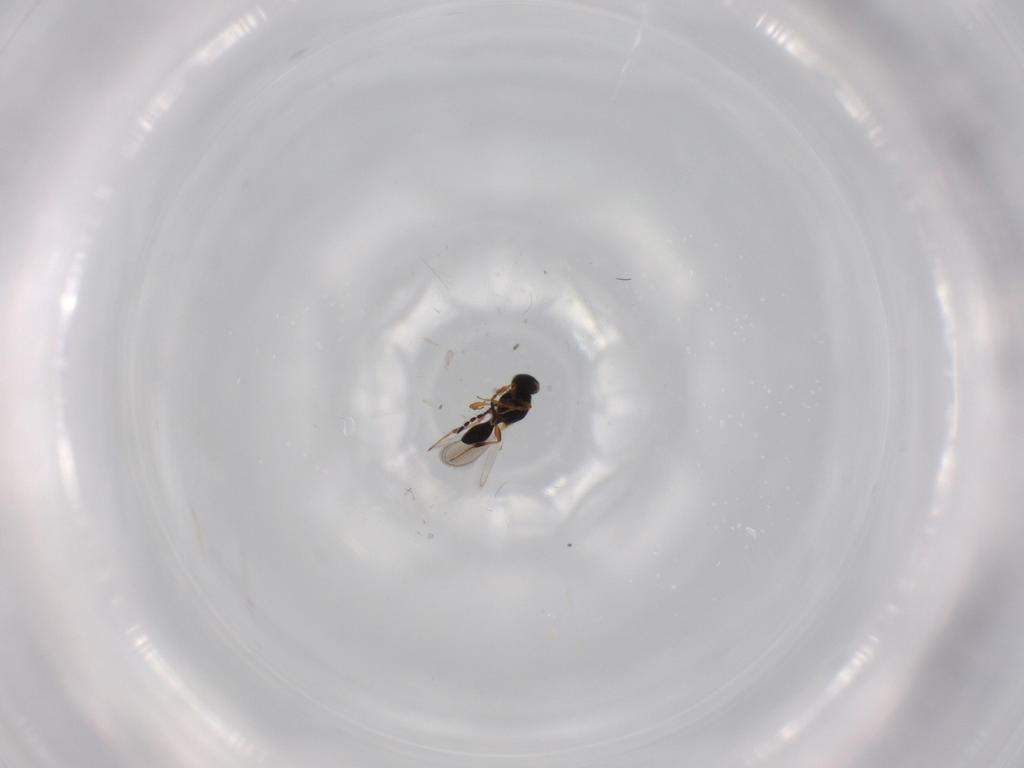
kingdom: Animalia
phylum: Arthropoda
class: Insecta
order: Hymenoptera
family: Platygastridae
